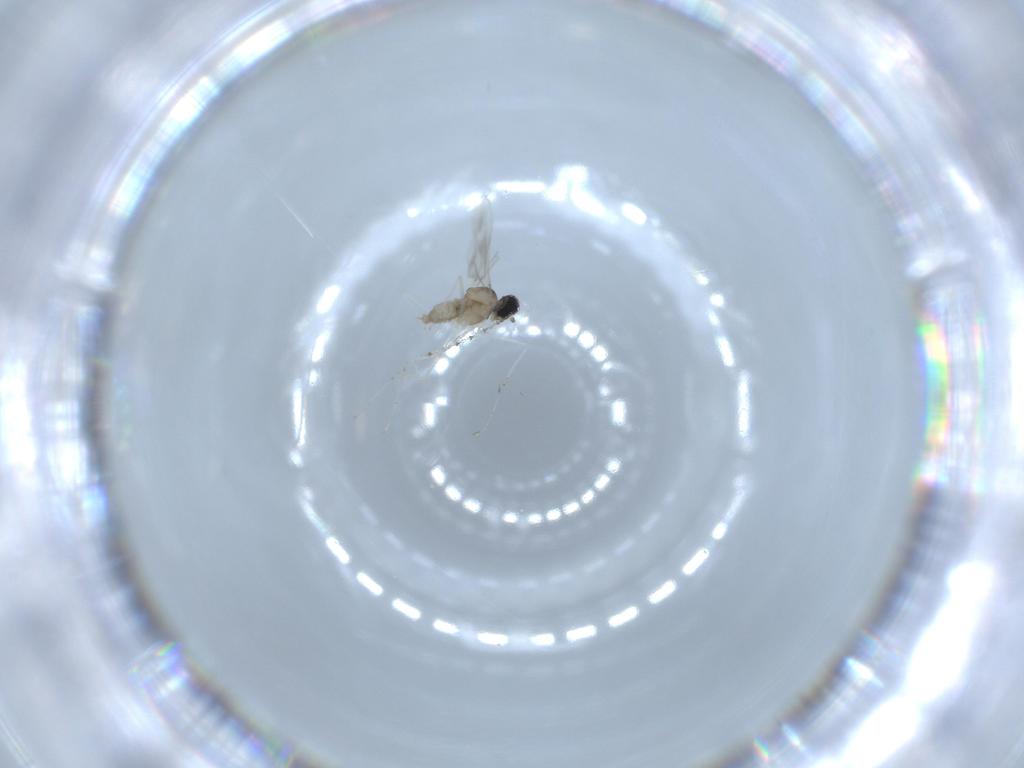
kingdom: Animalia
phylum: Arthropoda
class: Insecta
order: Diptera
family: Cecidomyiidae
